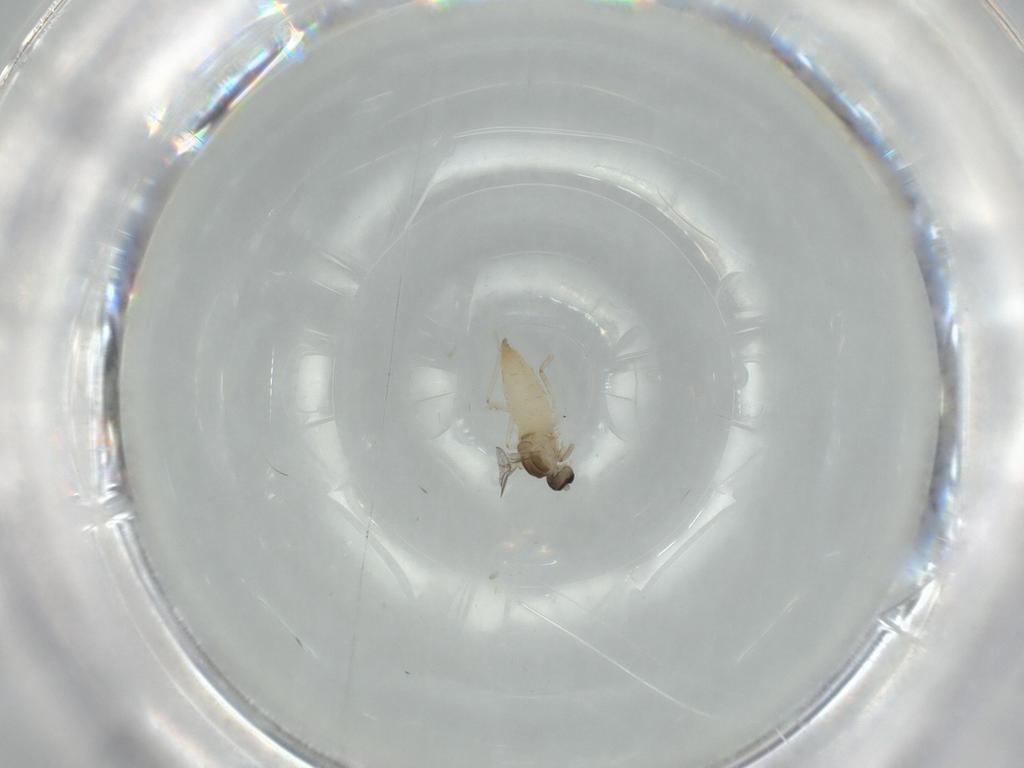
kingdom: Animalia
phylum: Arthropoda
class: Insecta
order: Diptera
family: Cecidomyiidae
